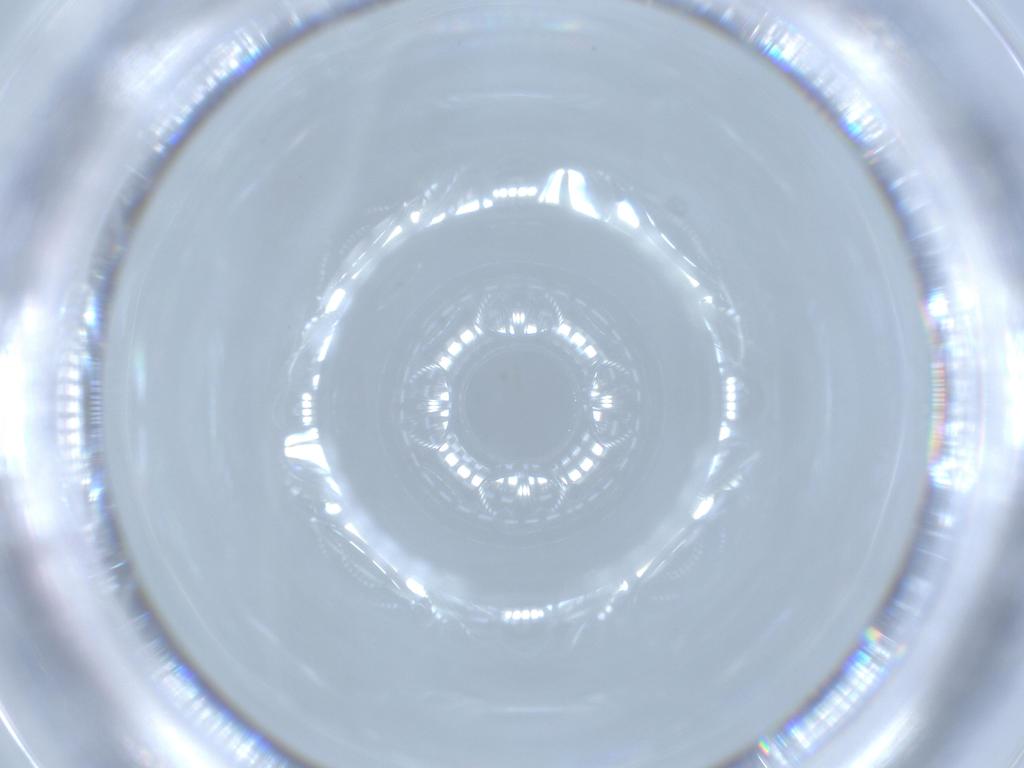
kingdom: Animalia
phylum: Arthropoda
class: Insecta
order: Diptera
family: Psychodidae
